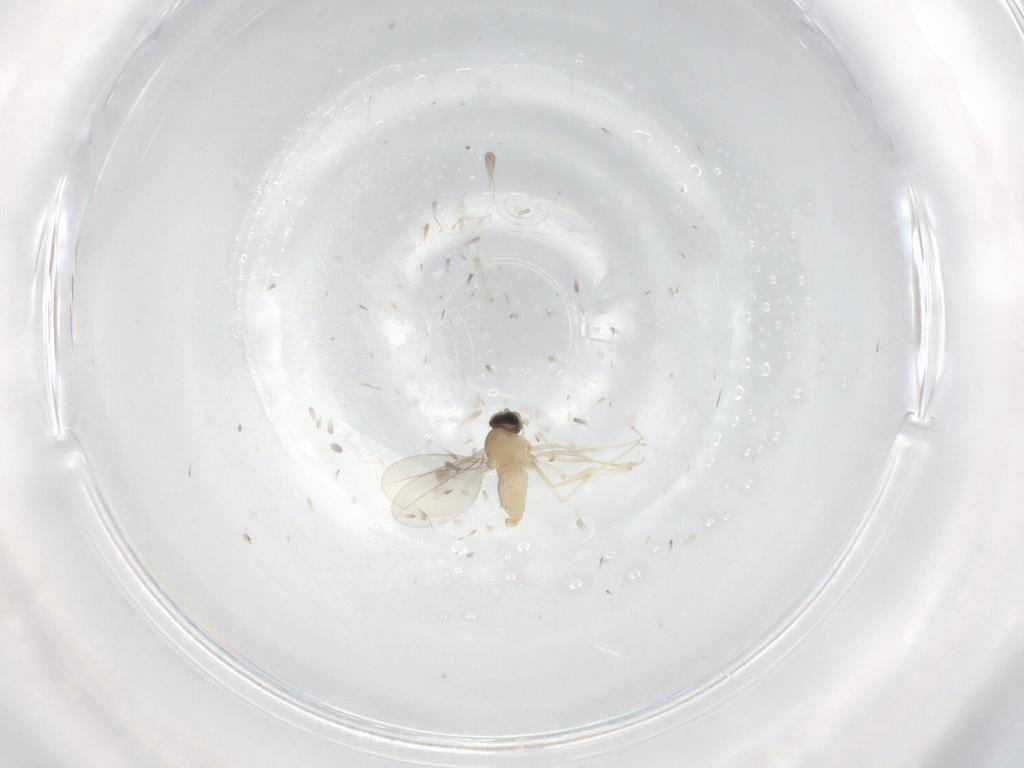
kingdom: Animalia
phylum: Arthropoda
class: Insecta
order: Diptera
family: Cecidomyiidae
